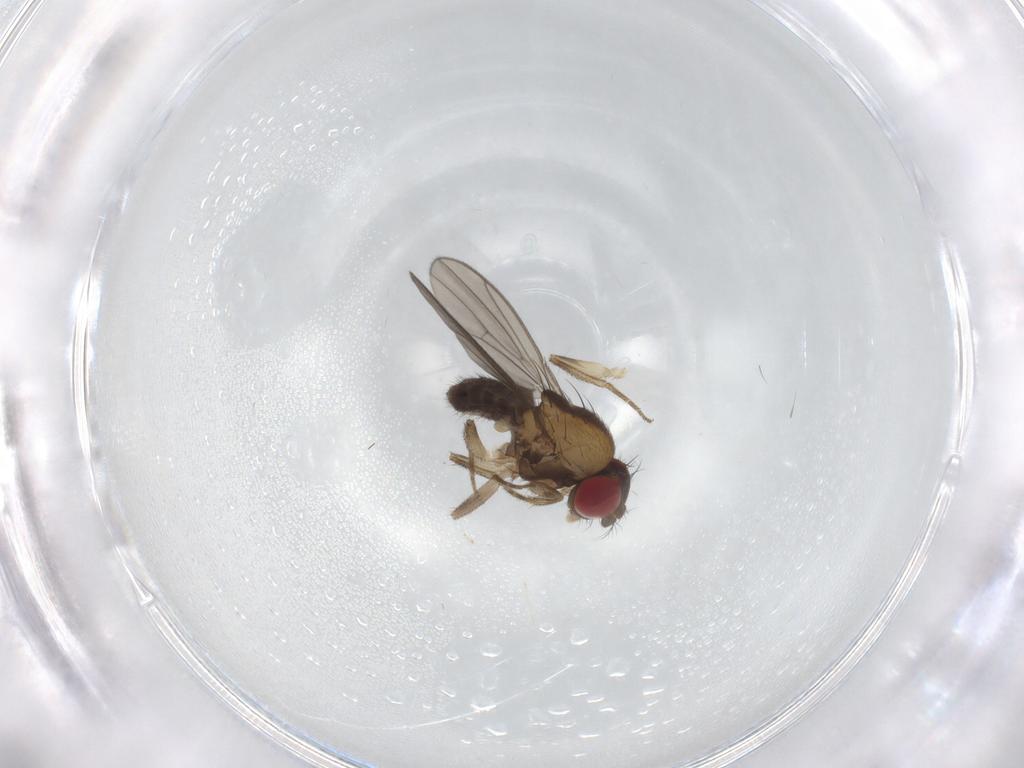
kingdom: Animalia
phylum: Arthropoda
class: Insecta
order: Diptera
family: Drosophilidae
